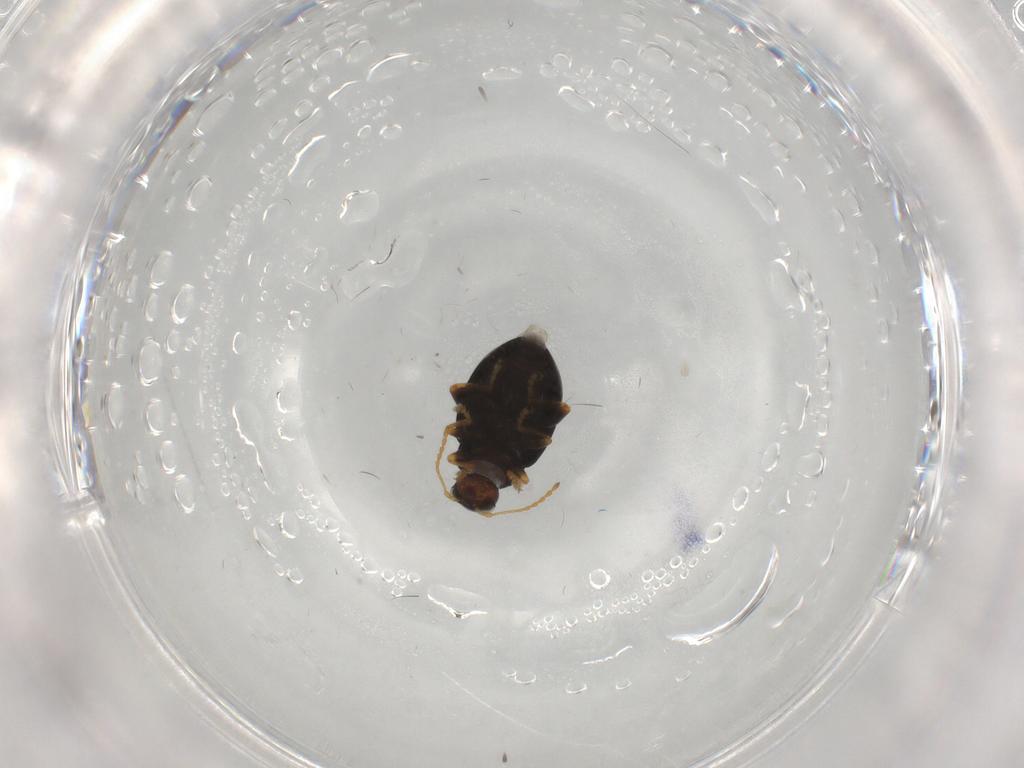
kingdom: Animalia
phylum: Arthropoda
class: Insecta
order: Coleoptera
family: Chrysomelidae
